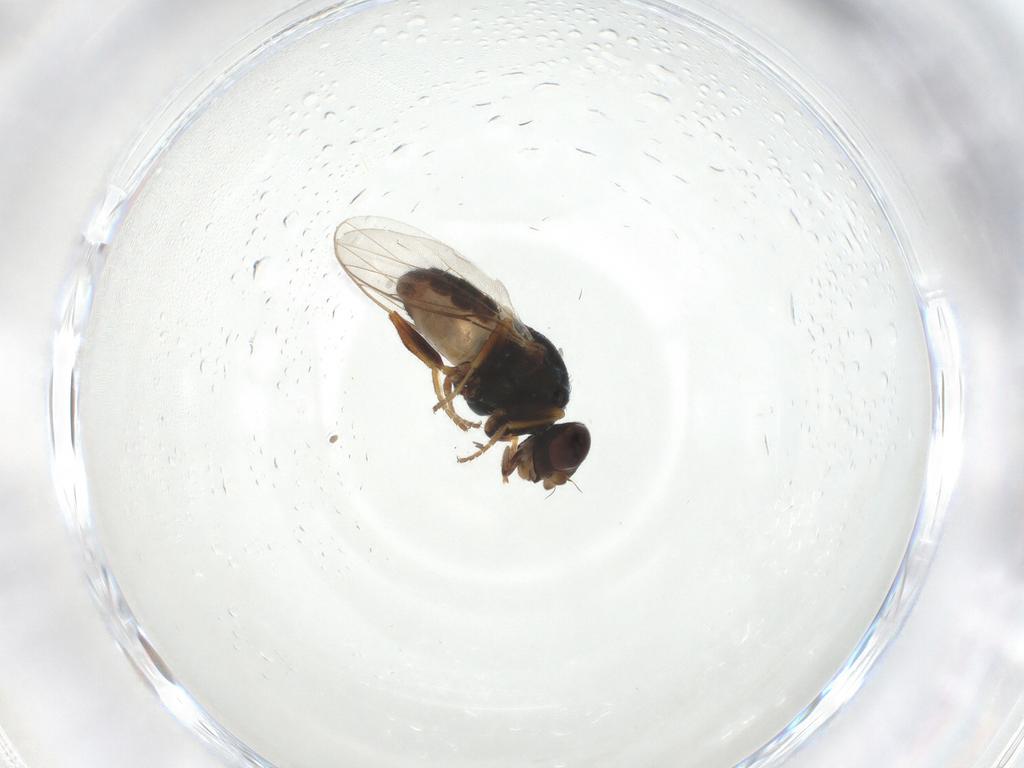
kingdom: Animalia
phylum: Arthropoda
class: Insecta
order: Diptera
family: Chloropidae
